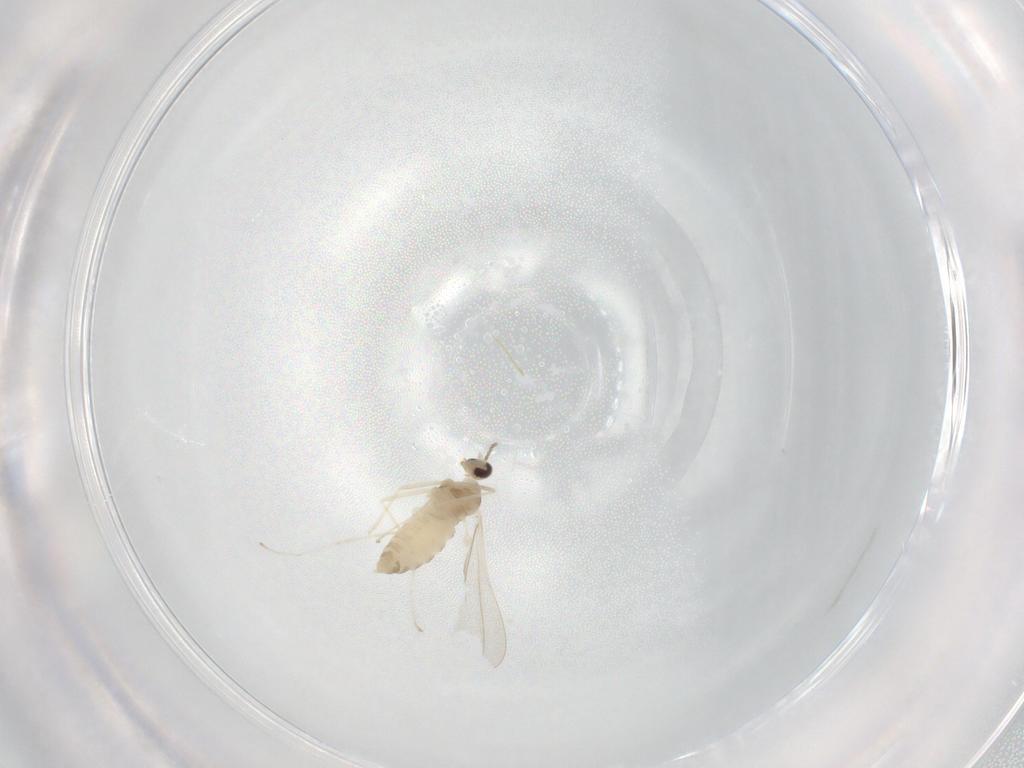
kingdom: Animalia
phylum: Arthropoda
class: Insecta
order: Diptera
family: Cecidomyiidae
